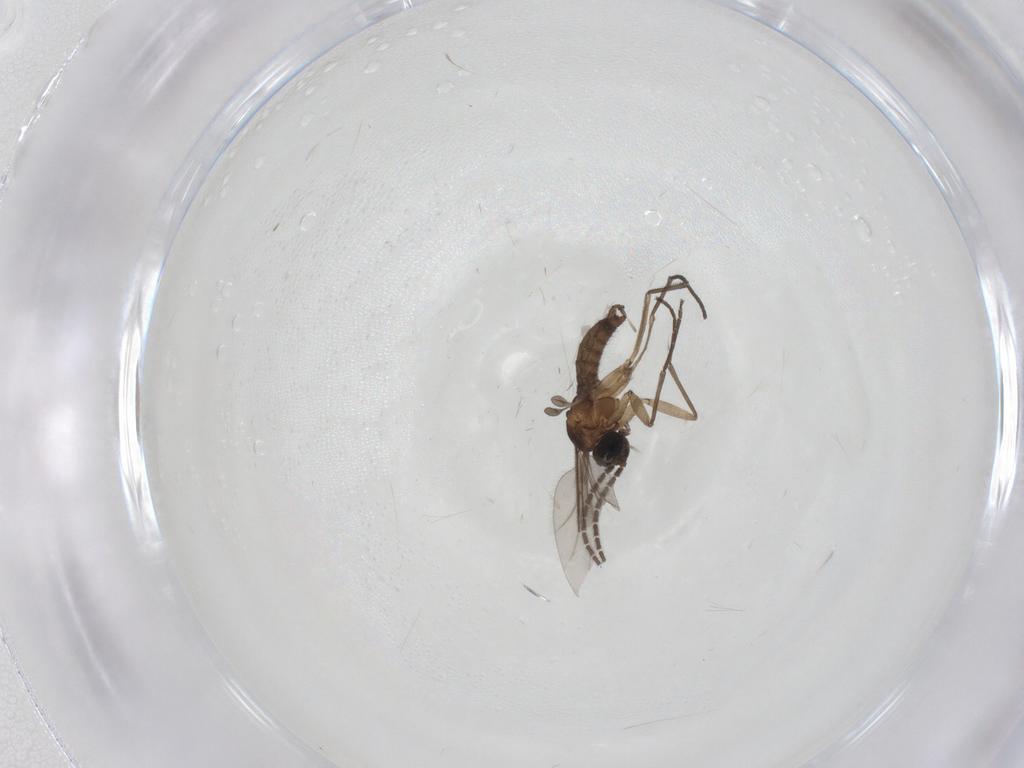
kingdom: Animalia
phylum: Arthropoda
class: Insecta
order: Diptera
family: Sciaridae
